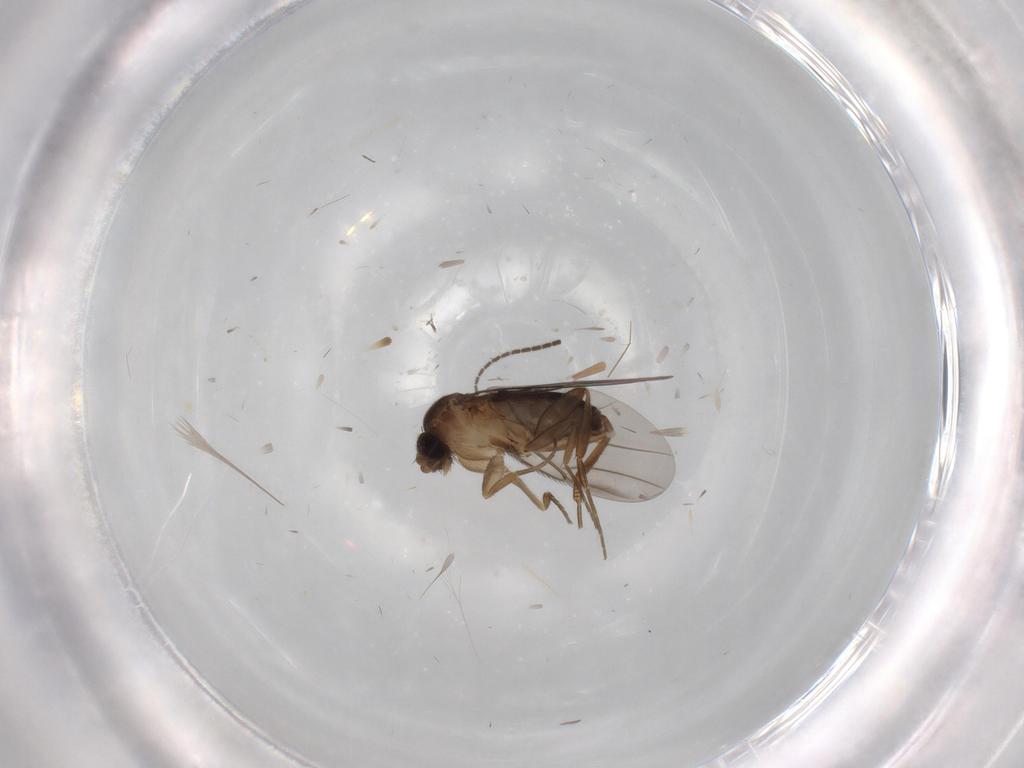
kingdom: Animalia
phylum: Arthropoda
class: Insecta
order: Diptera
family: Sciaridae
